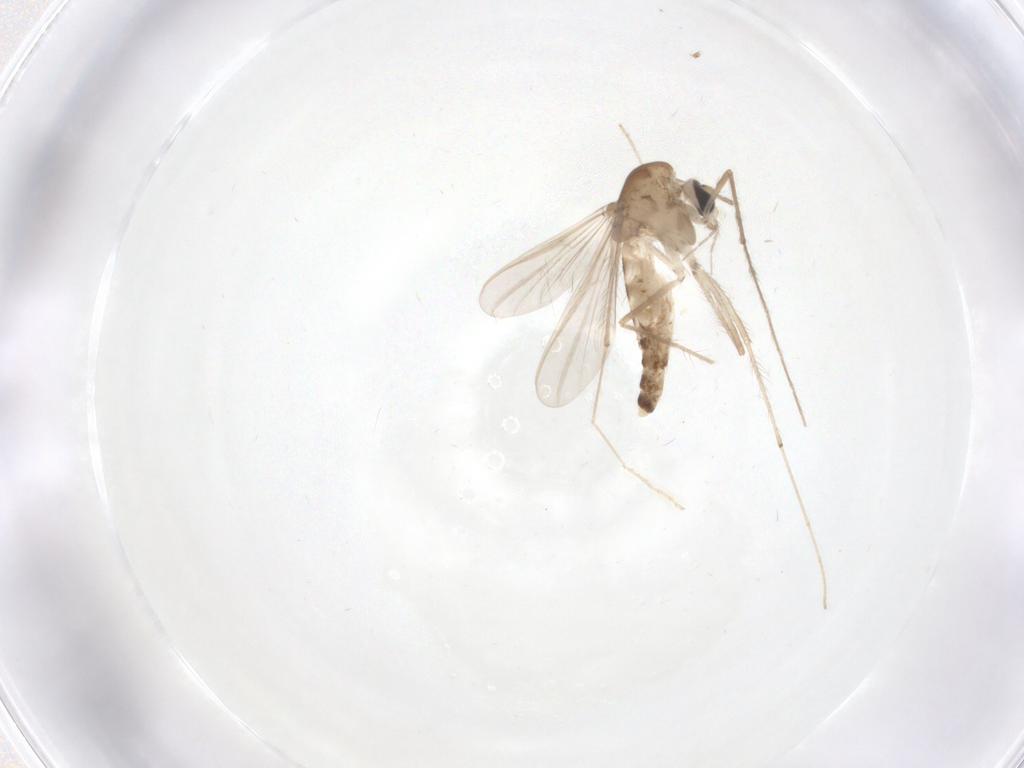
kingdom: Animalia
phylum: Arthropoda
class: Insecta
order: Diptera
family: Chironomidae
